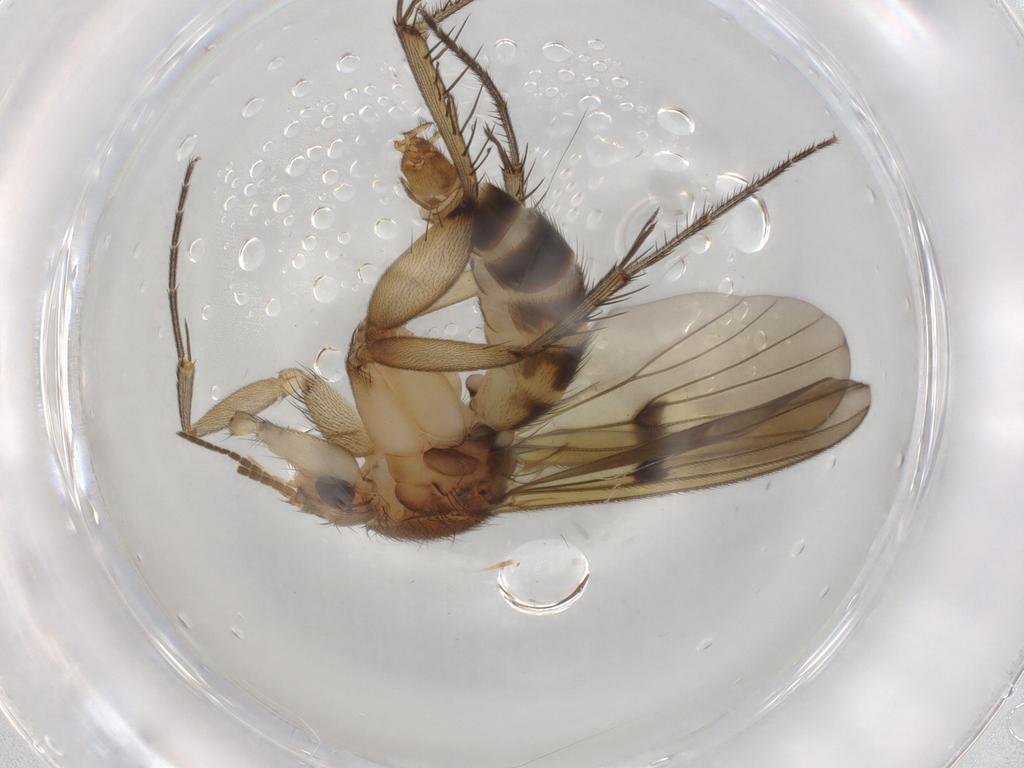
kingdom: Animalia
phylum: Arthropoda
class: Insecta
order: Diptera
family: Mycetophilidae
